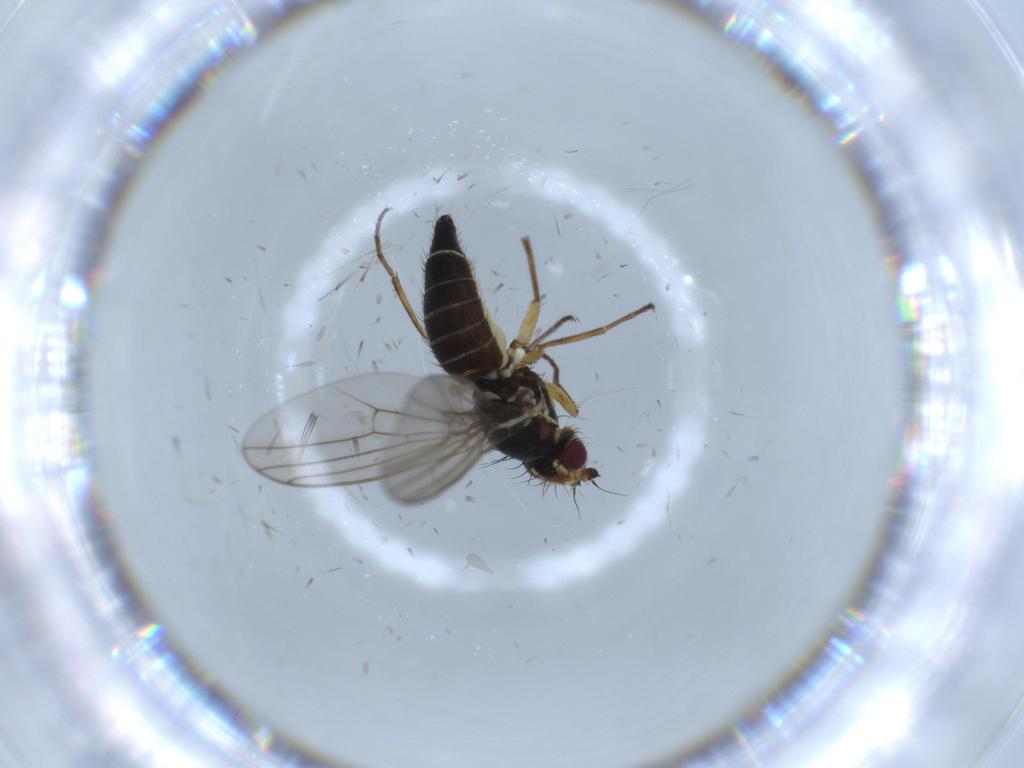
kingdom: Animalia
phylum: Arthropoda
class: Insecta
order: Diptera
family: Agromyzidae
